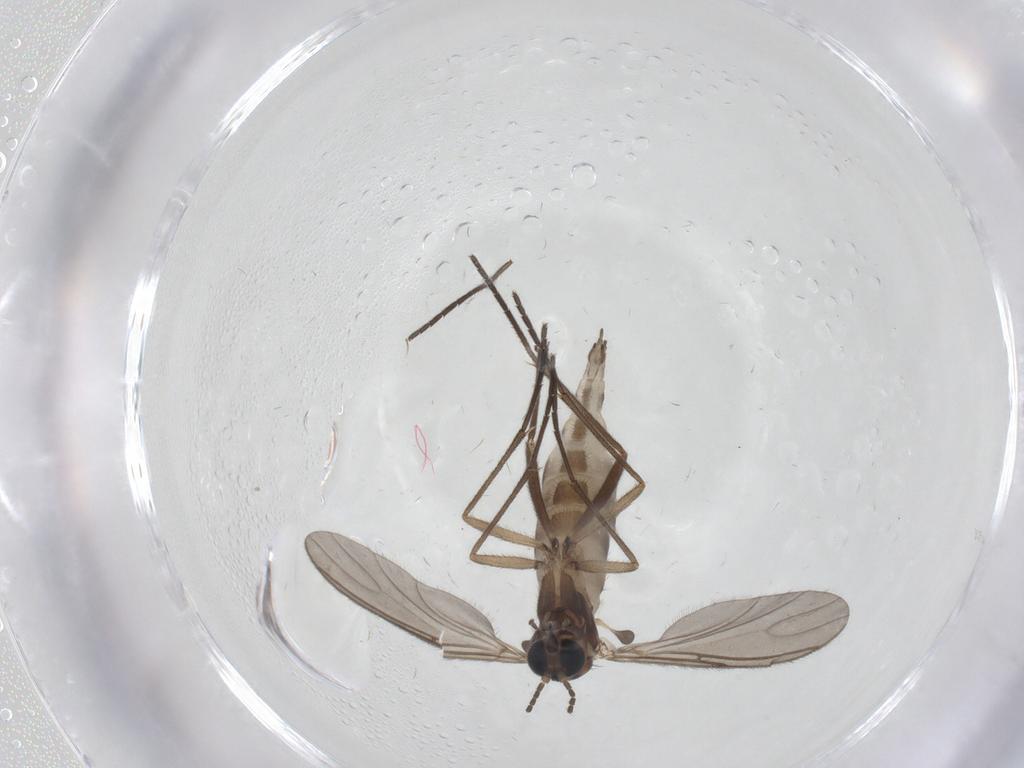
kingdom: Animalia
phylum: Arthropoda
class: Insecta
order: Diptera
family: Sciaridae
